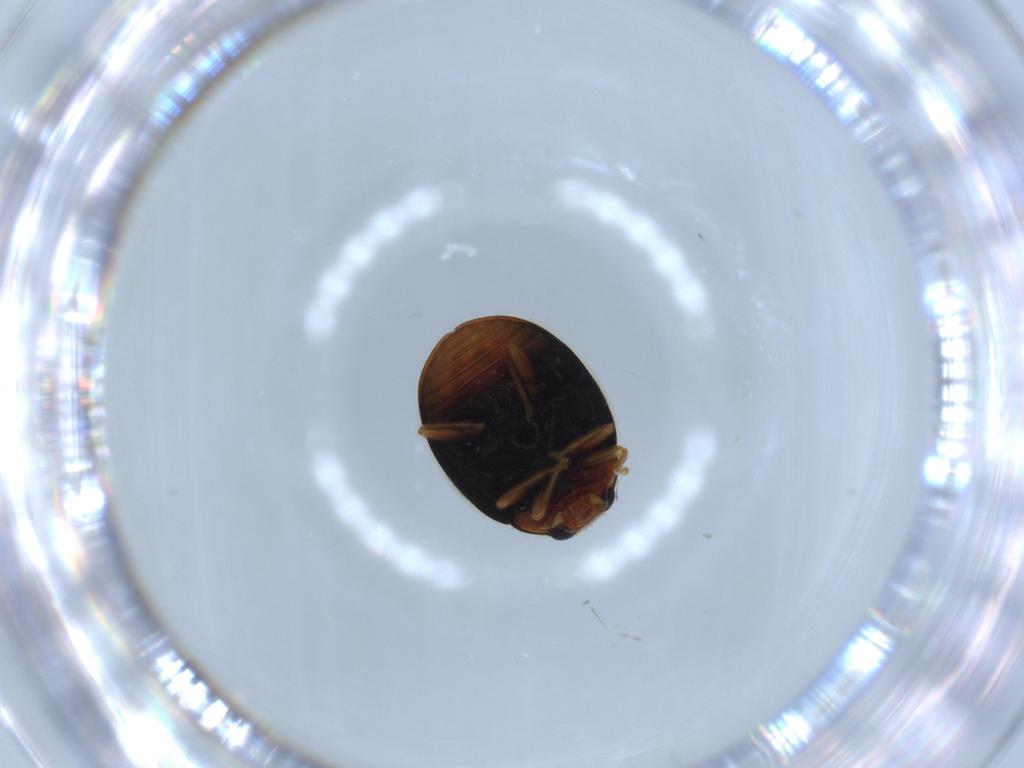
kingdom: Animalia
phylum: Arthropoda
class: Insecta
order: Coleoptera
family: Coccinellidae
